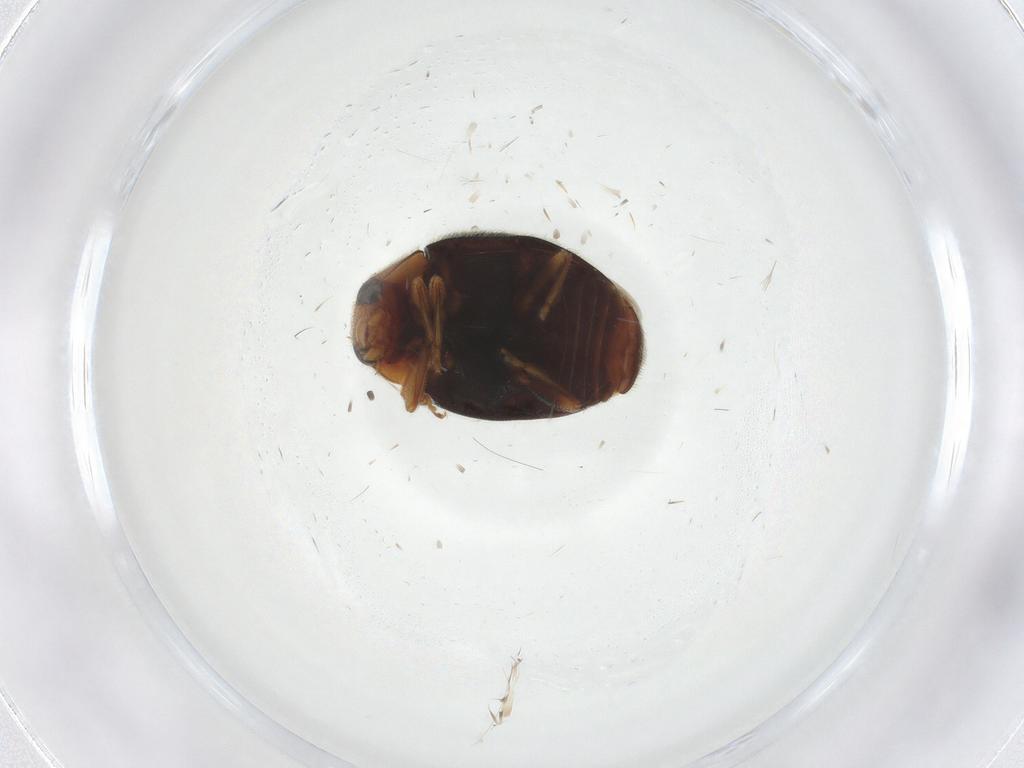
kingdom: Animalia
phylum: Arthropoda
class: Insecta
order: Coleoptera
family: Coccinellidae
